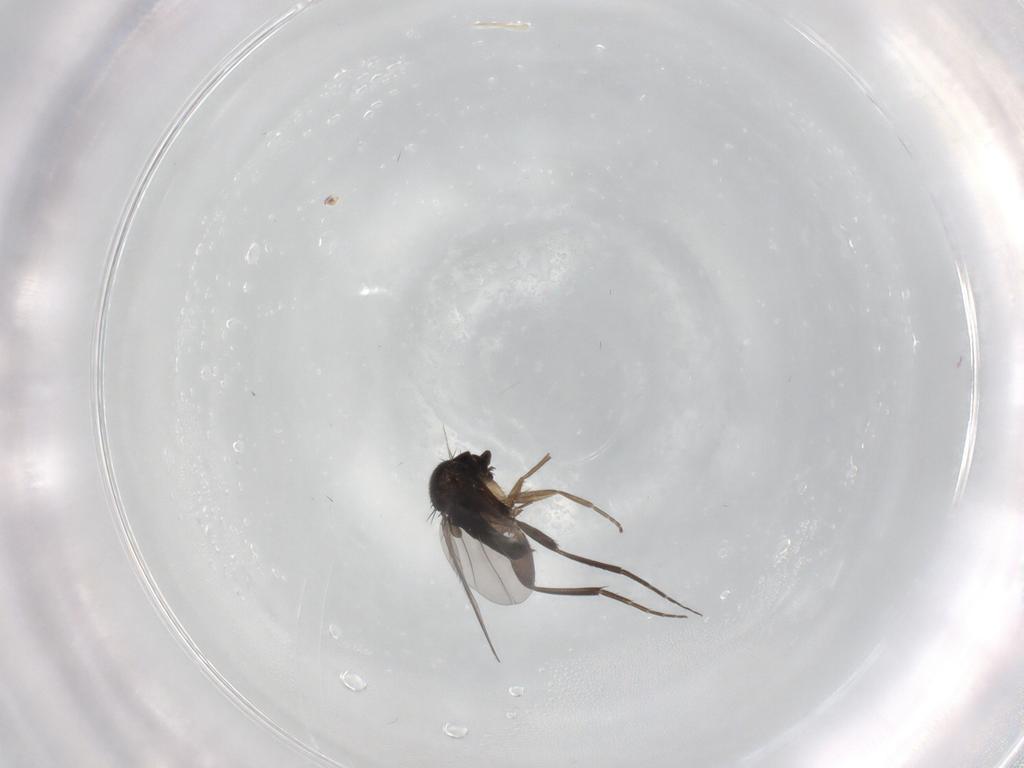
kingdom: Animalia
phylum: Arthropoda
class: Insecta
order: Diptera
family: Phoridae
